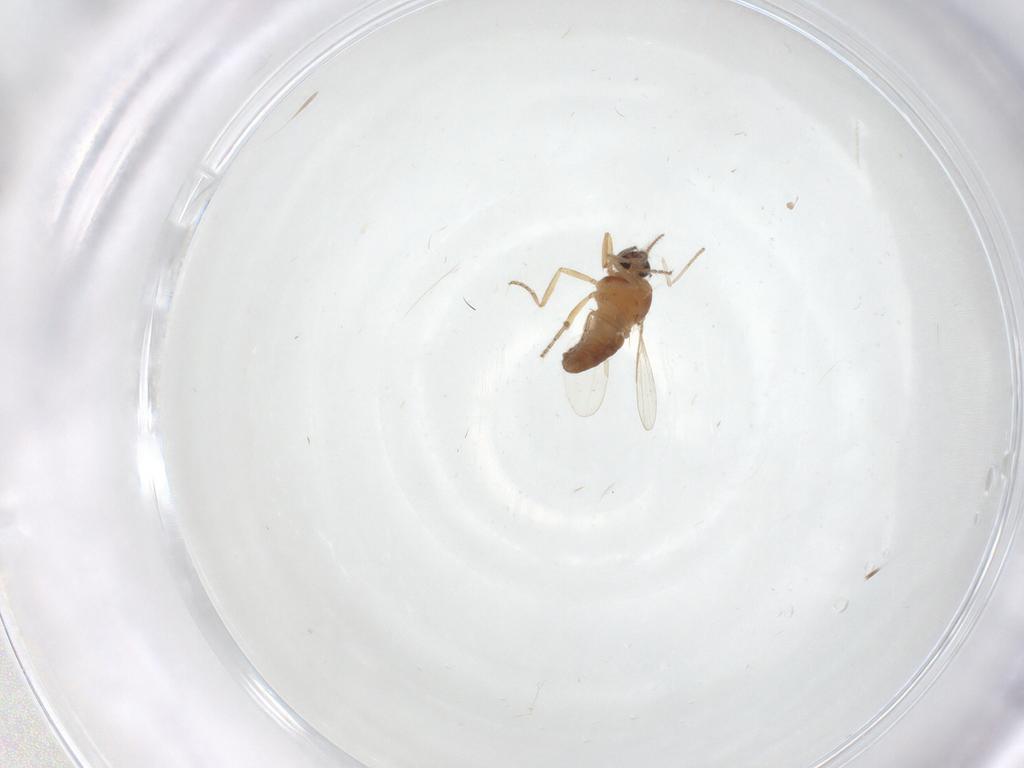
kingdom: Animalia
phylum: Arthropoda
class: Insecta
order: Diptera
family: Ceratopogonidae
